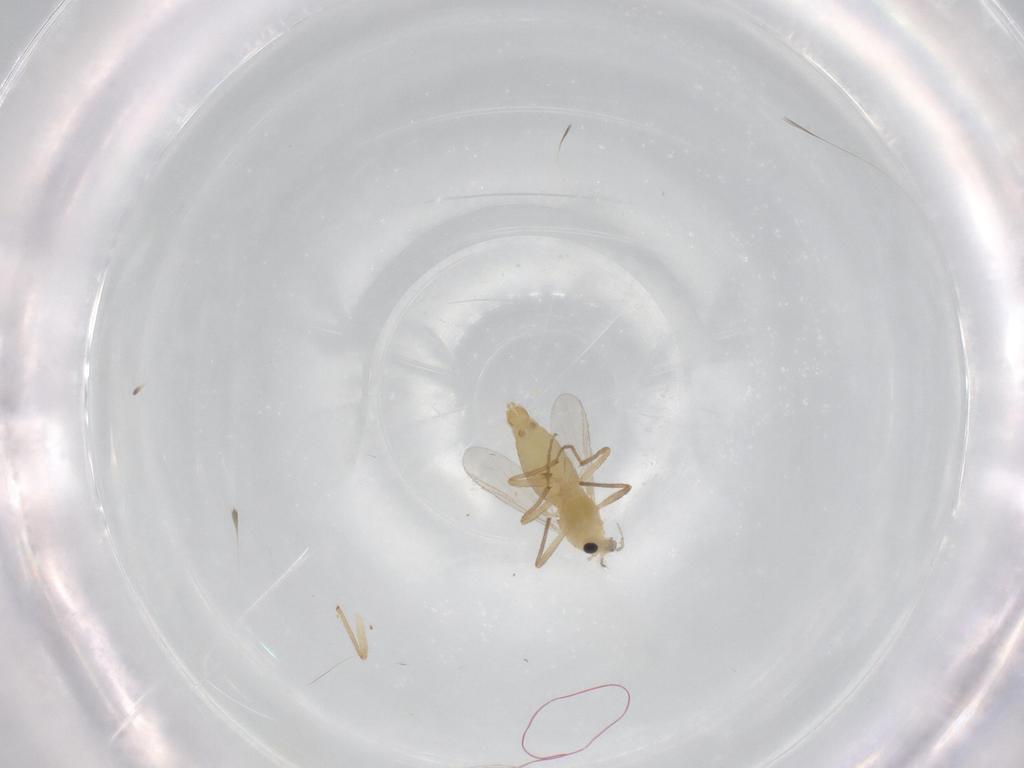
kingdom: Animalia
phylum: Arthropoda
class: Insecta
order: Diptera
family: Chironomidae
